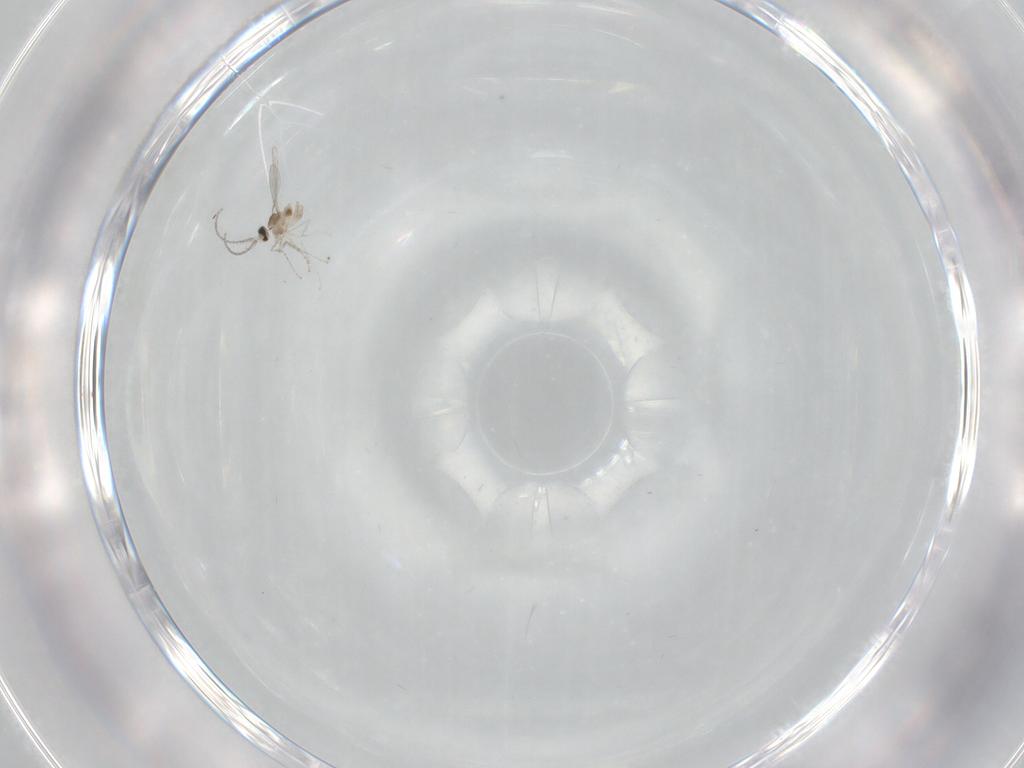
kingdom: Animalia
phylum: Arthropoda
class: Insecta
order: Diptera
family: Cecidomyiidae
